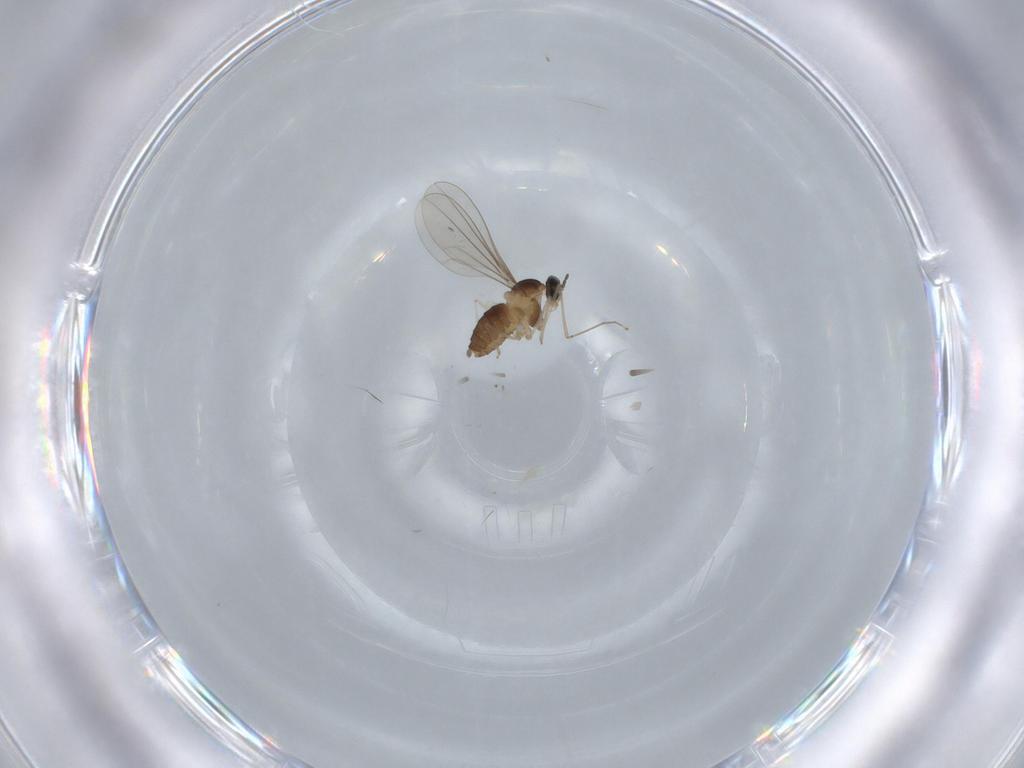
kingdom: Animalia
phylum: Arthropoda
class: Insecta
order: Diptera
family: Cecidomyiidae
